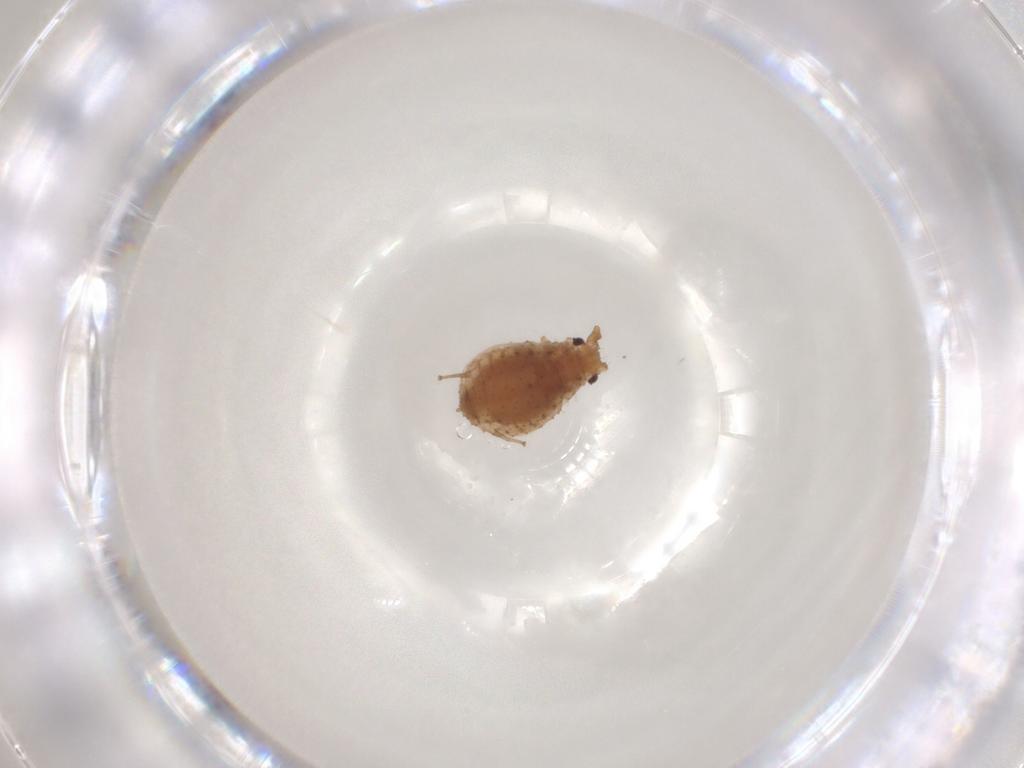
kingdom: Animalia
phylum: Arthropoda
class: Insecta
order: Hemiptera
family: Aphididae
